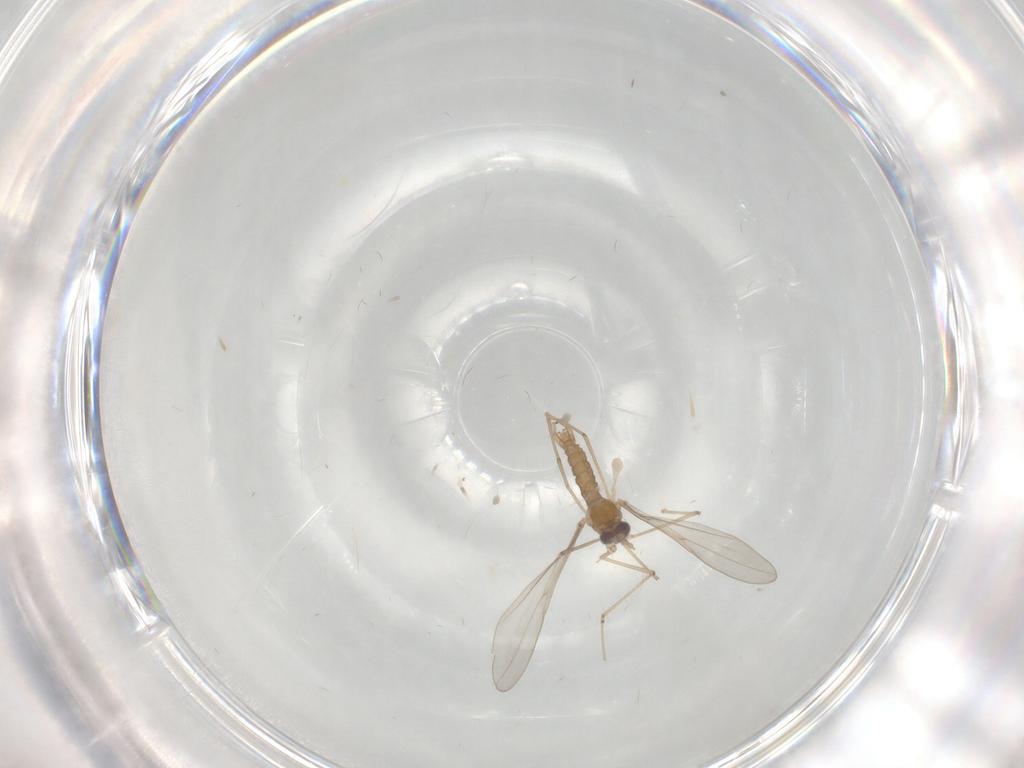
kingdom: Animalia
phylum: Arthropoda
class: Insecta
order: Diptera
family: Cecidomyiidae
